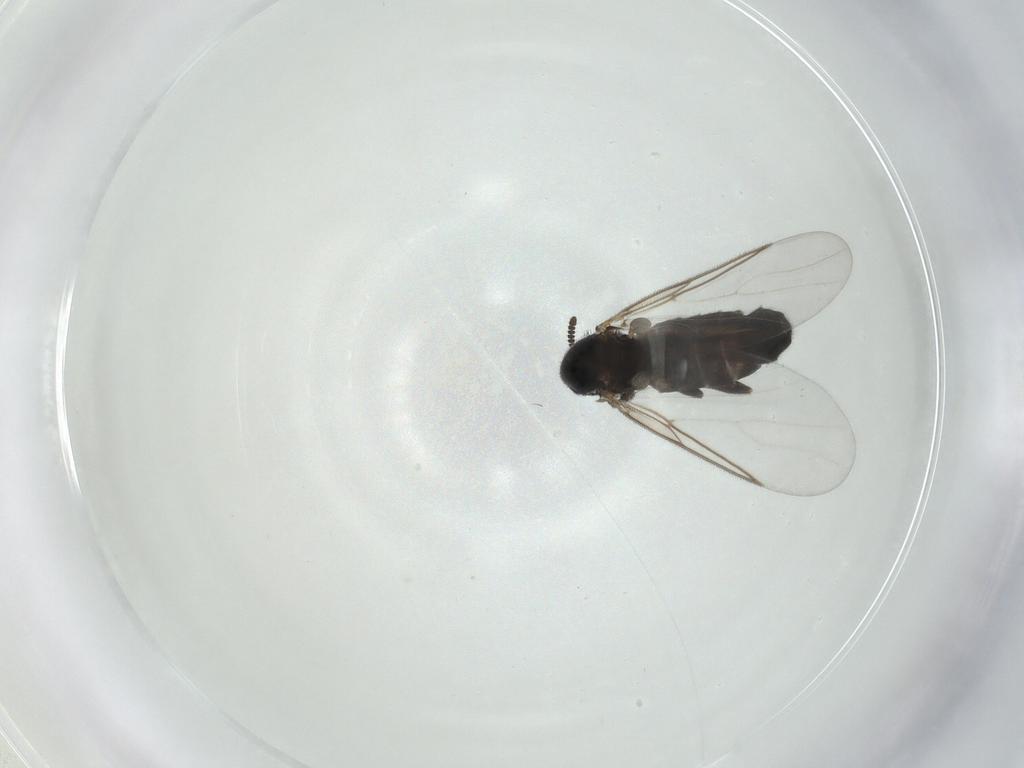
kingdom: Animalia
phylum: Arthropoda
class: Insecta
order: Diptera
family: Scatopsidae
